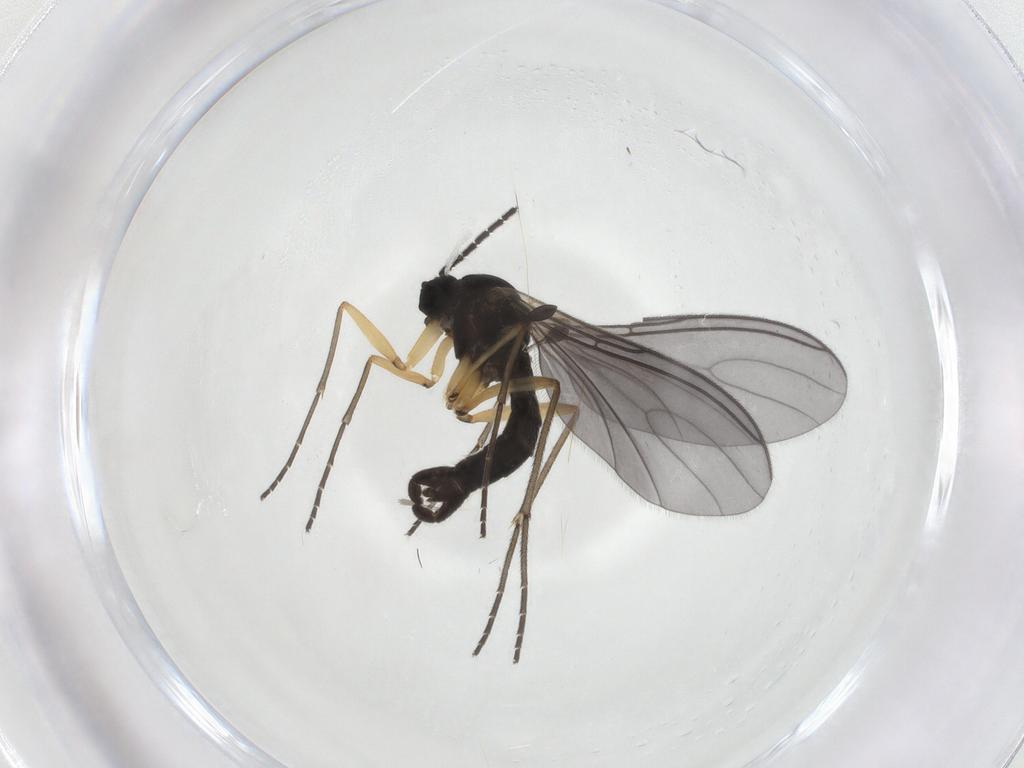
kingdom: Animalia
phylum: Arthropoda
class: Insecta
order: Diptera
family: Sciaridae
